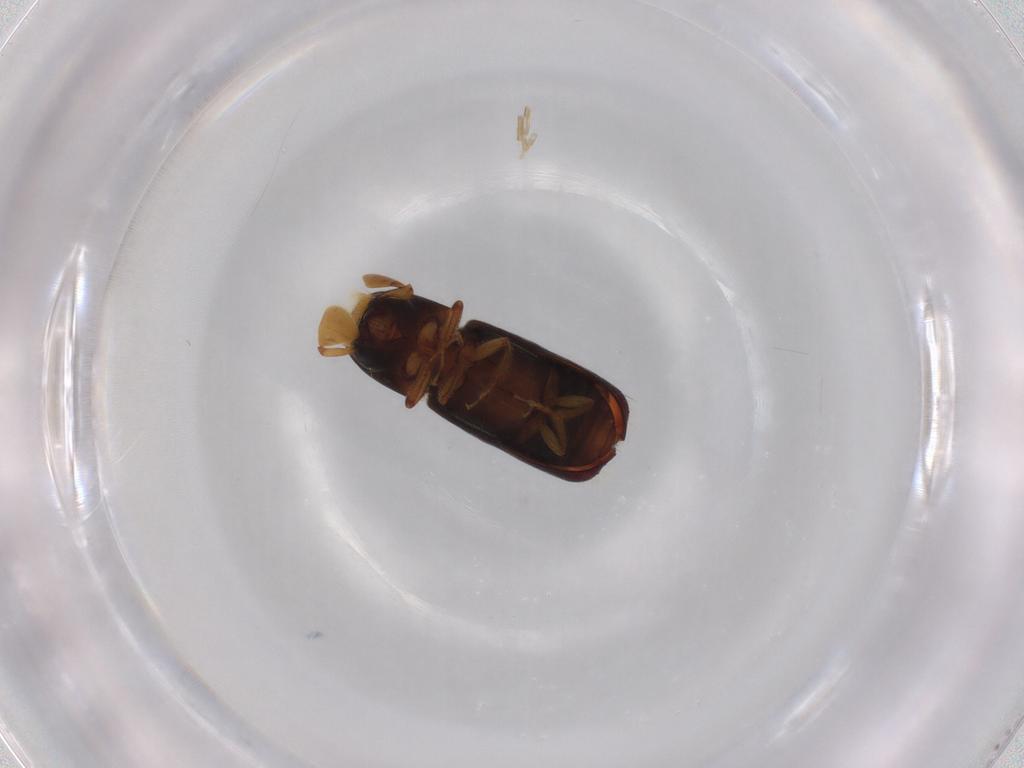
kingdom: Animalia
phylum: Arthropoda
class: Insecta
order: Coleoptera
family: Curculionidae
